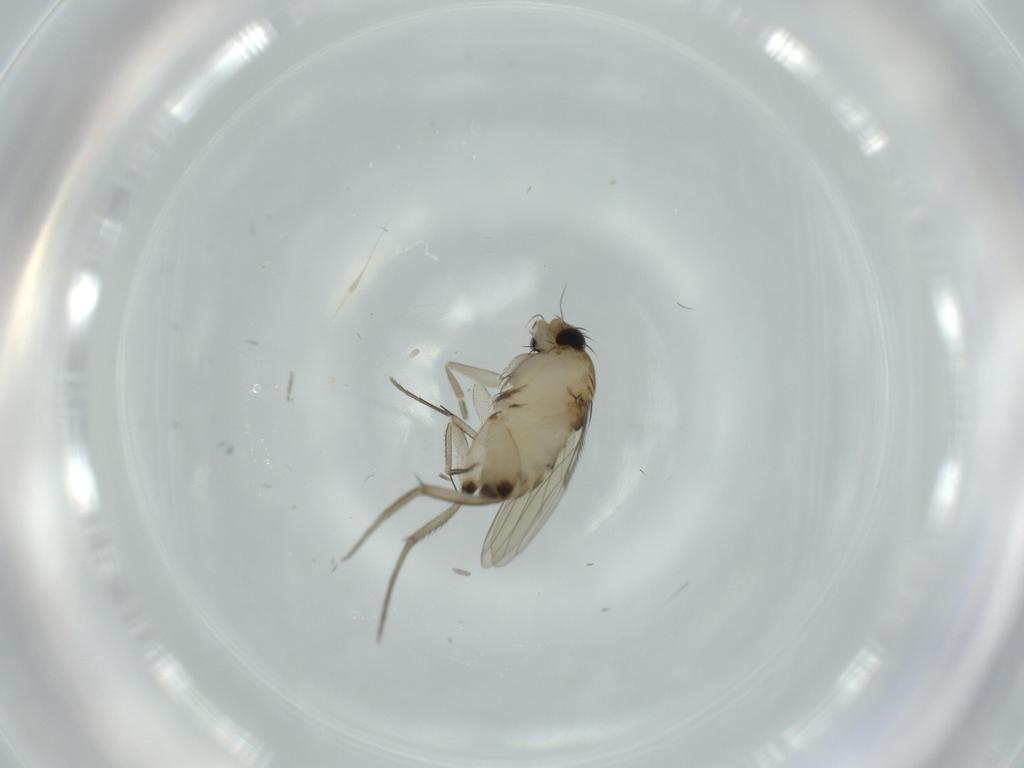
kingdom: Animalia
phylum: Arthropoda
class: Insecta
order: Diptera
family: Phoridae
